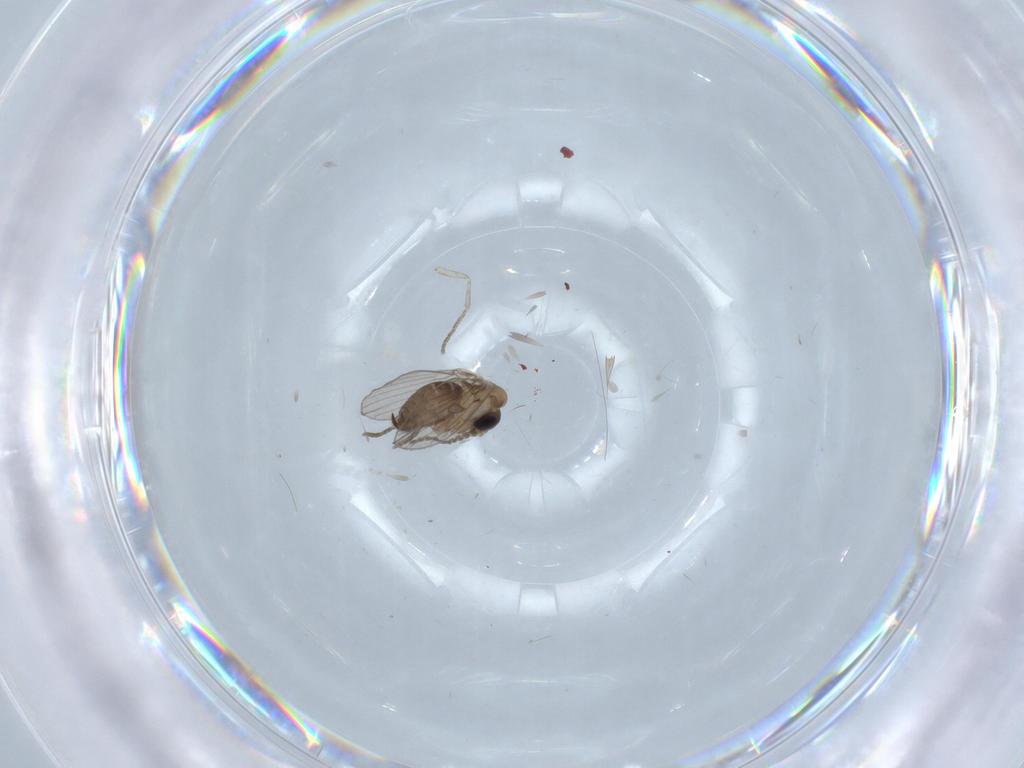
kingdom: Animalia
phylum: Arthropoda
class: Insecta
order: Diptera
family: Psychodidae
